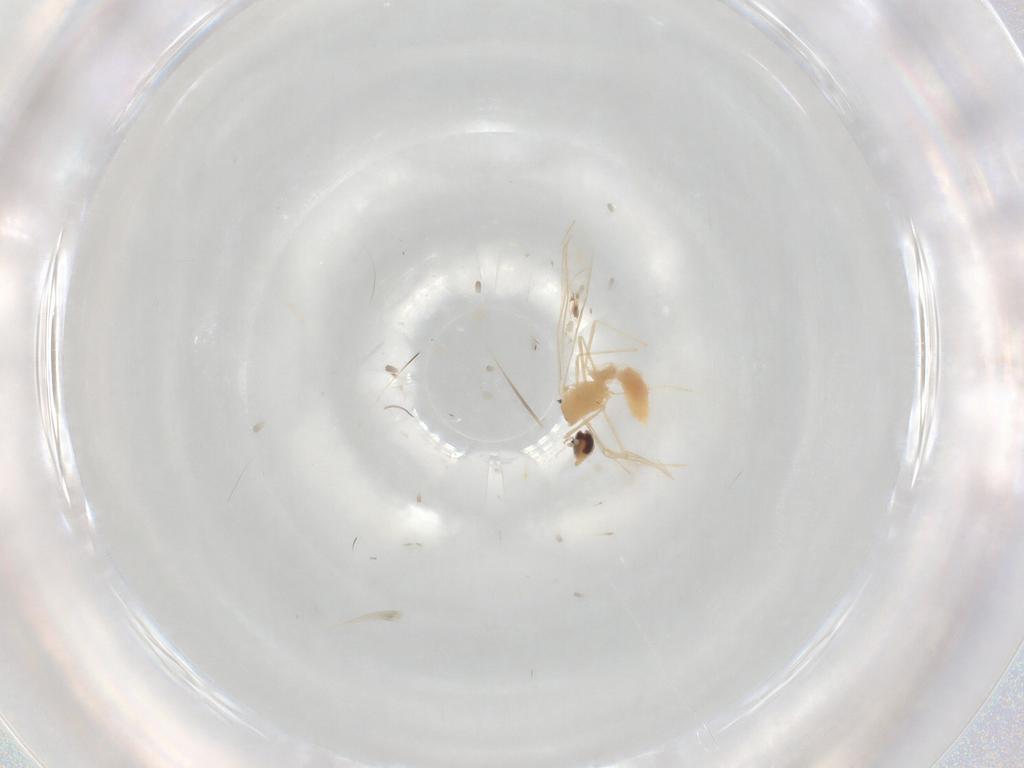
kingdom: Animalia
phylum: Arthropoda
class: Insecta
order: Diptera
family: Cecidomyiidae
